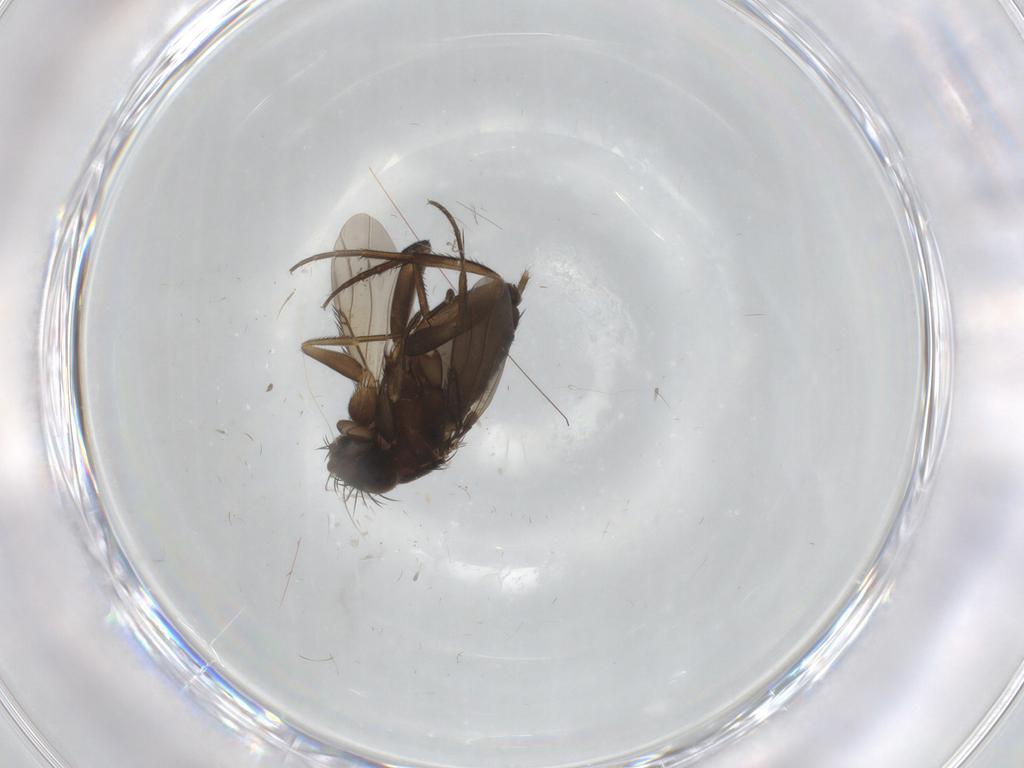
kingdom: Animalia
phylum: Arthropoda
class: Insecta
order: Diptera
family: Phoridae
